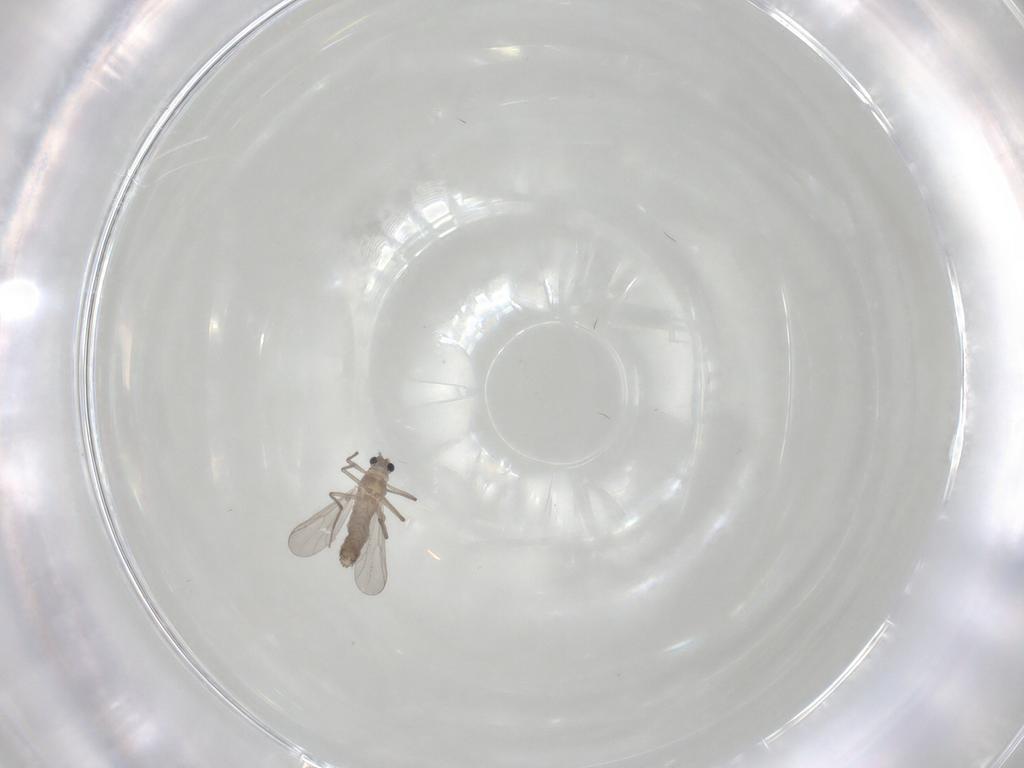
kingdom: Animalia
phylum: Arthropoda
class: Insecta
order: Diptera
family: Chironomidae
